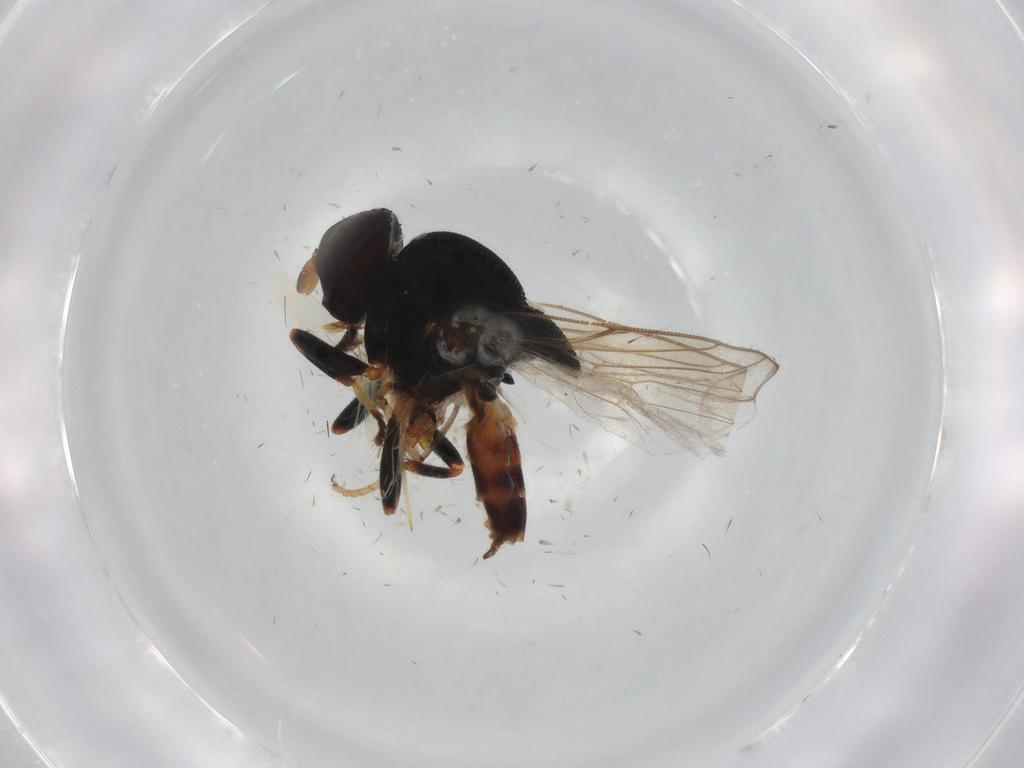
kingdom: Animalia
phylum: Arthropoda
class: Insecta
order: Diptera
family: Chloropidae
